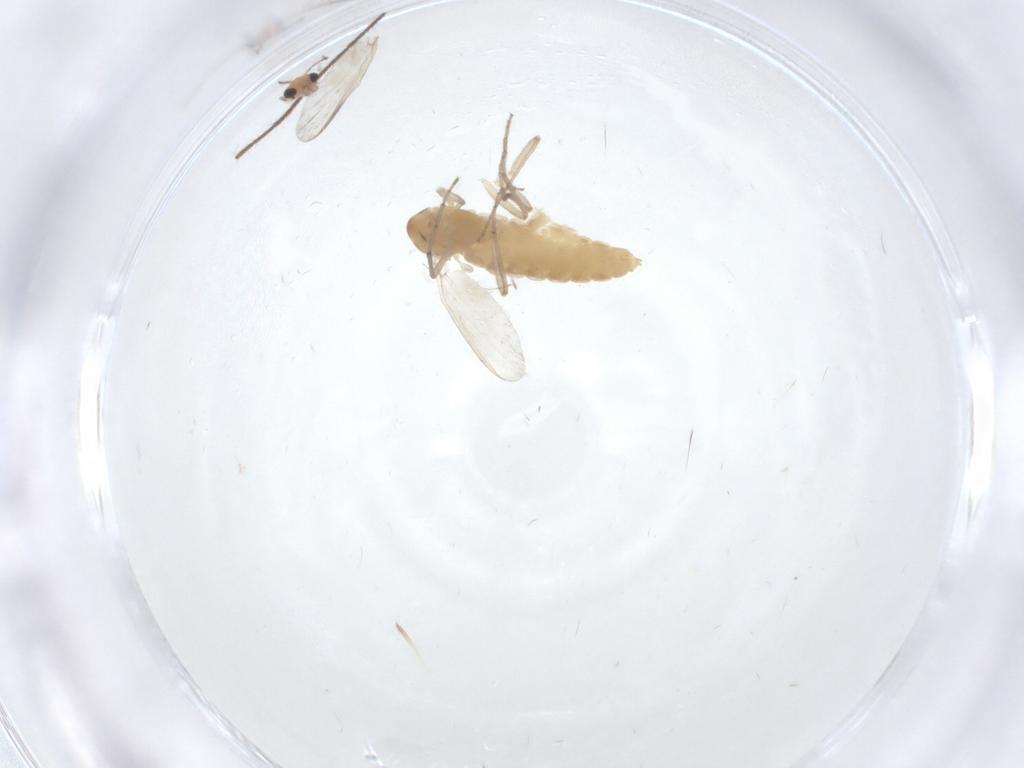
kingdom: Animalia
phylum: Arthropoda
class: Insecta
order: Diptera
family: Chironomidae
